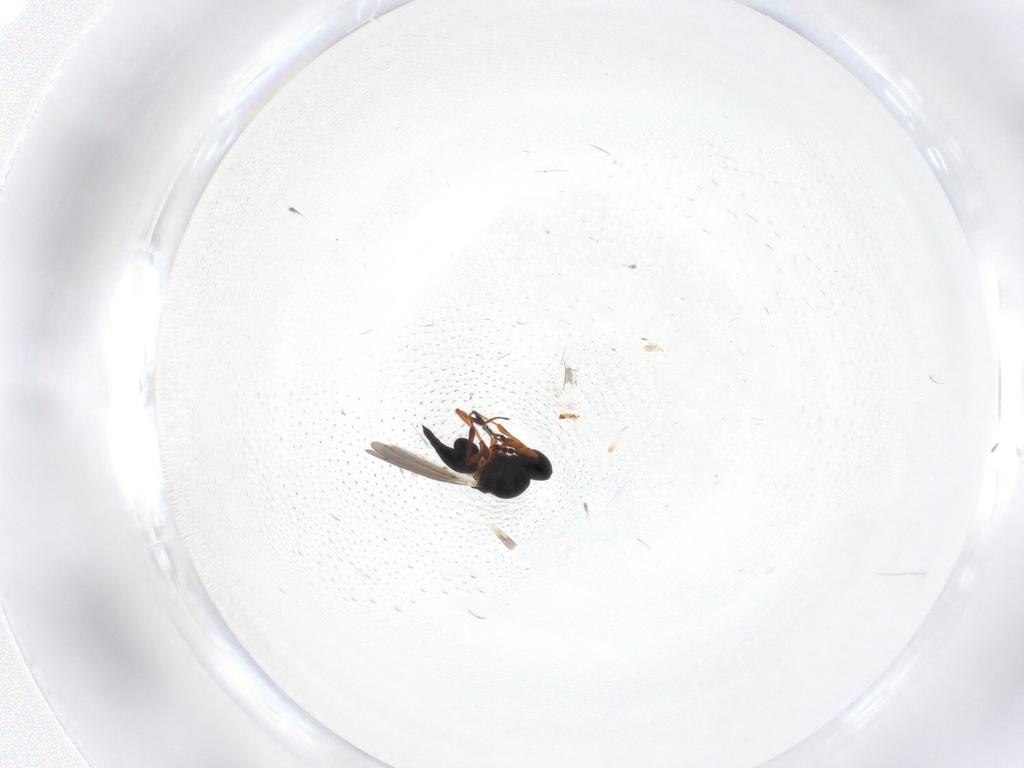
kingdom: Animalia
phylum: Arthropoda
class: Insecta
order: Hymenoptera
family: Platygastridae
